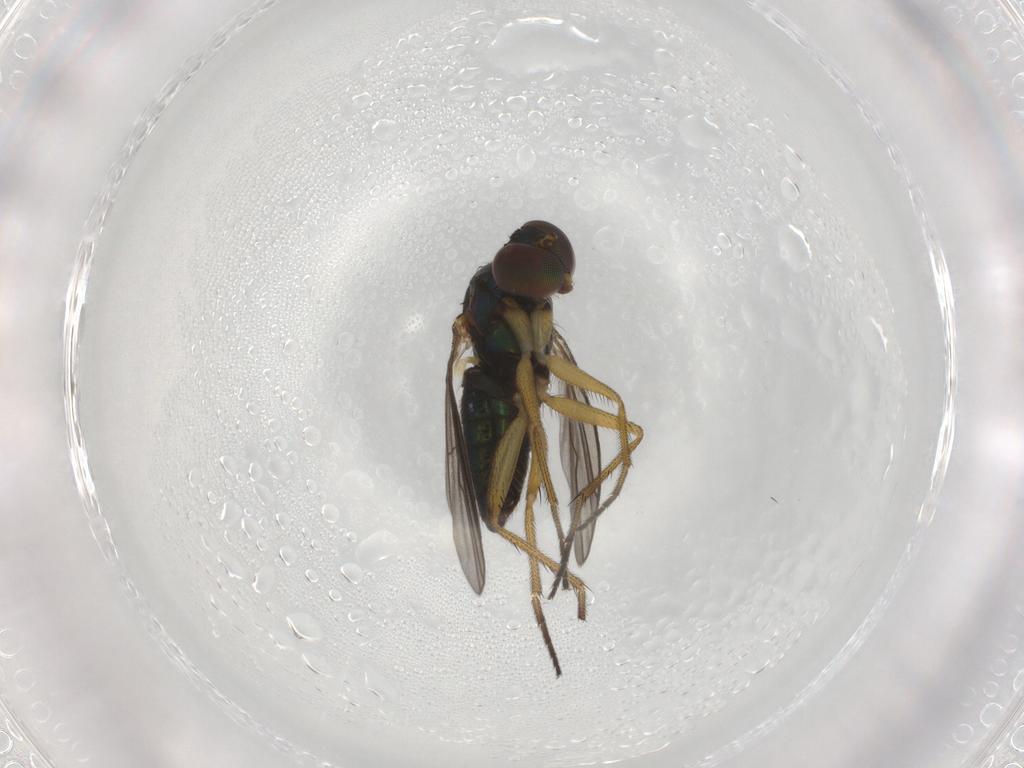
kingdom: Animalia
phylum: Arthropoda
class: Insecta
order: Diptera
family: Dolichopodidae
